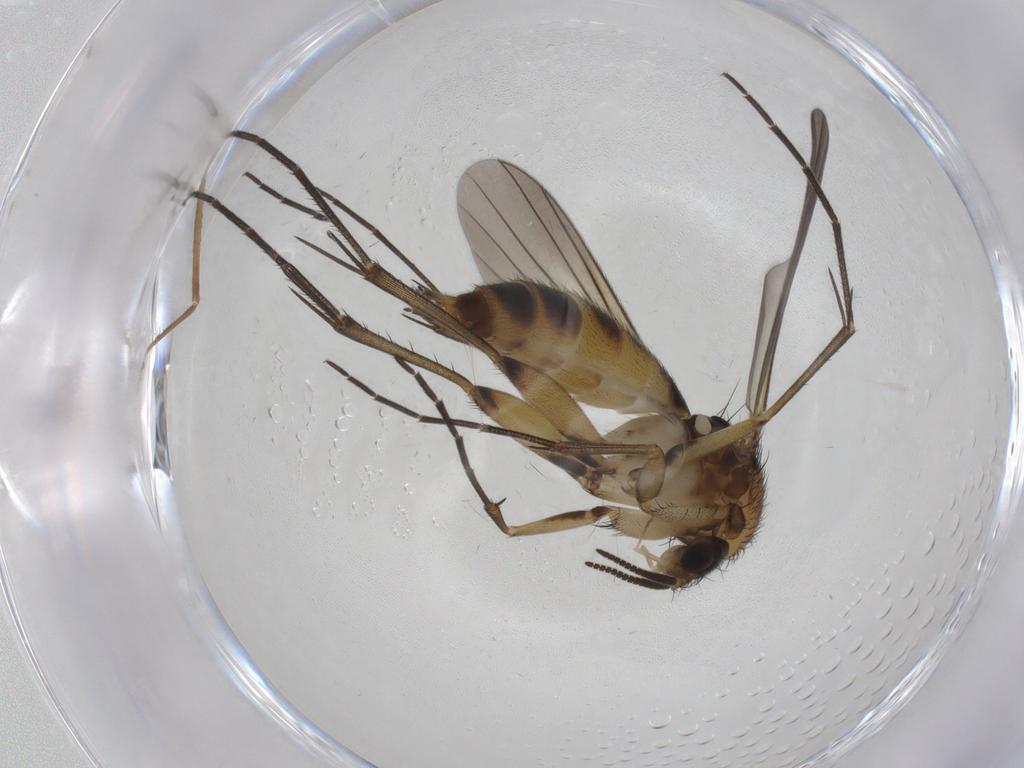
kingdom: Animalia
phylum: Arthropoda
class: Insecta
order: Diptera
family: Mycetophilidae
